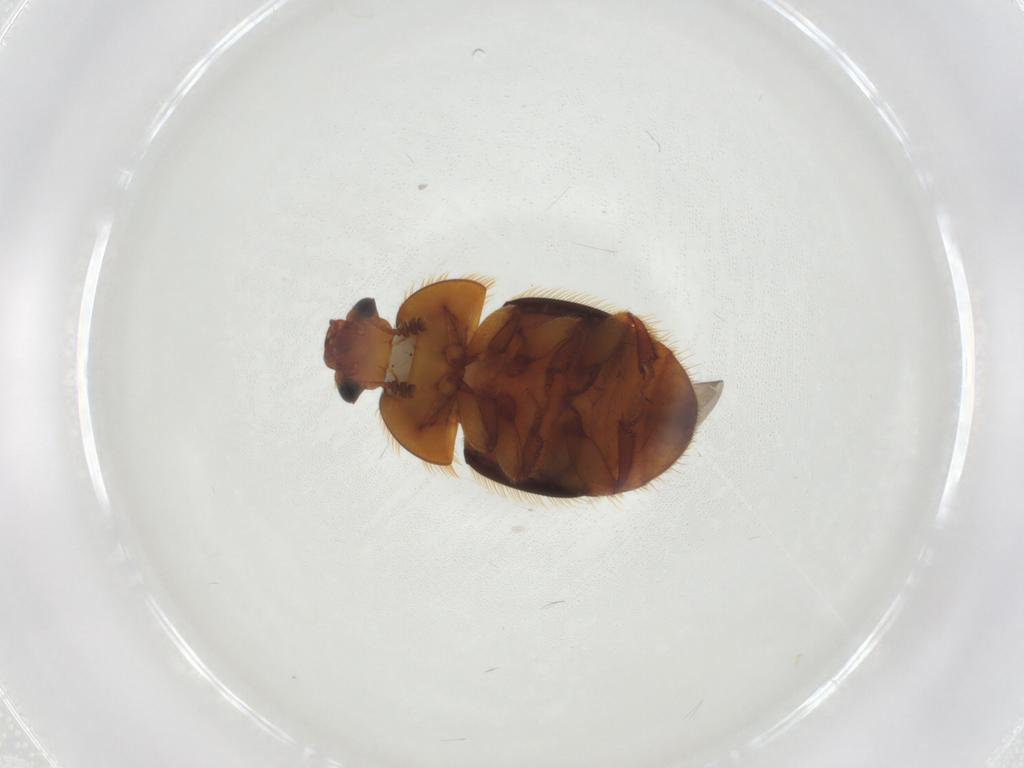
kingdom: Animalia
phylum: Arthropoda
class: Insecta
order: Coleoptera
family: Nitidulidae
